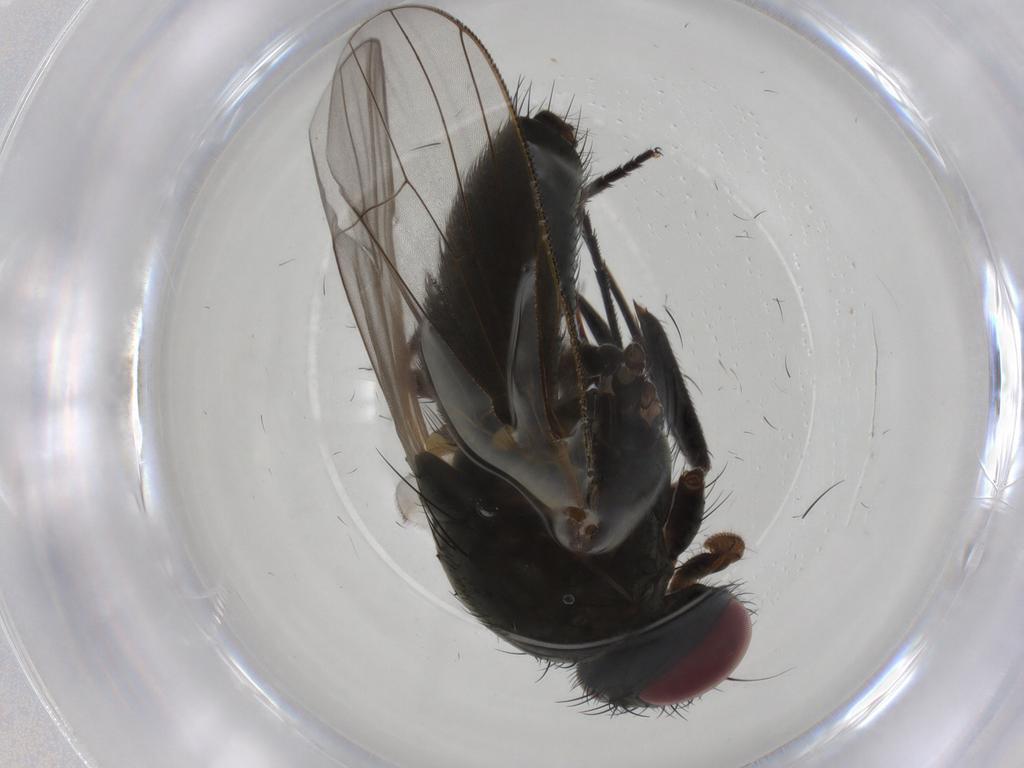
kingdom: Animalia
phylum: Arthropoda
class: Insecta
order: Diptera
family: Fannia
